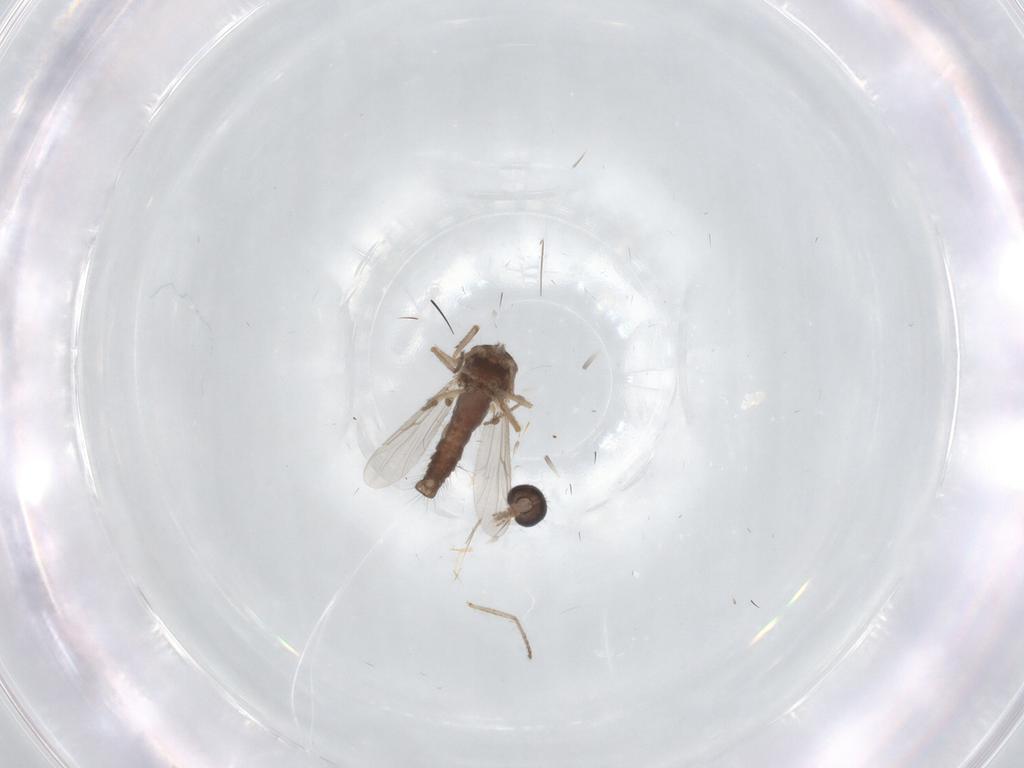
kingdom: Animalia
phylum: Arthropoda
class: Insecta
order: Diptera
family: Ceratopogonidae
